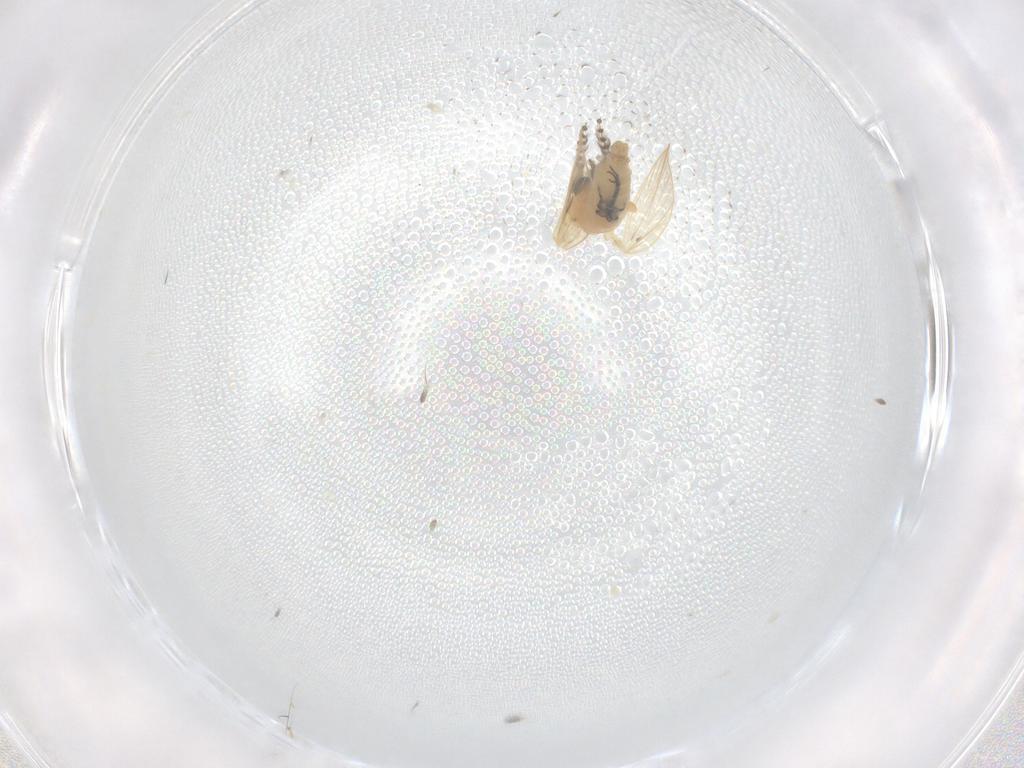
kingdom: Animalia
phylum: Arthropoda
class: Insecta
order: Diptera
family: Psychodidae
